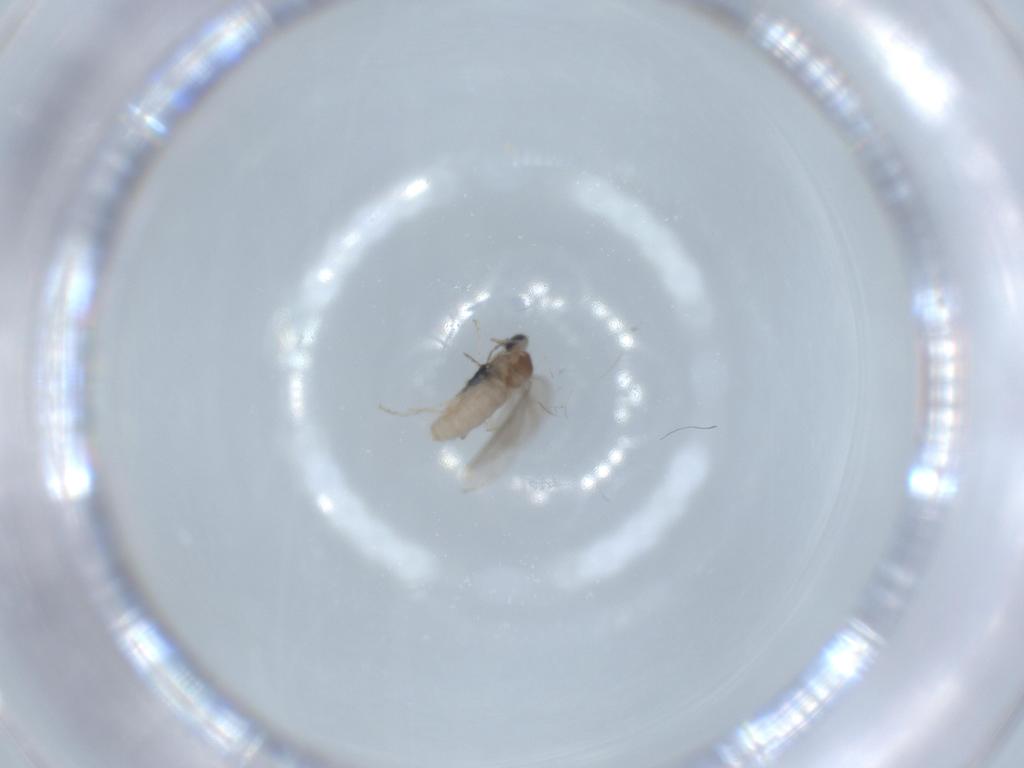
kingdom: Animalia
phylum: Arthropoda
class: Insecta
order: Diptera
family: Cecidomyiidae
